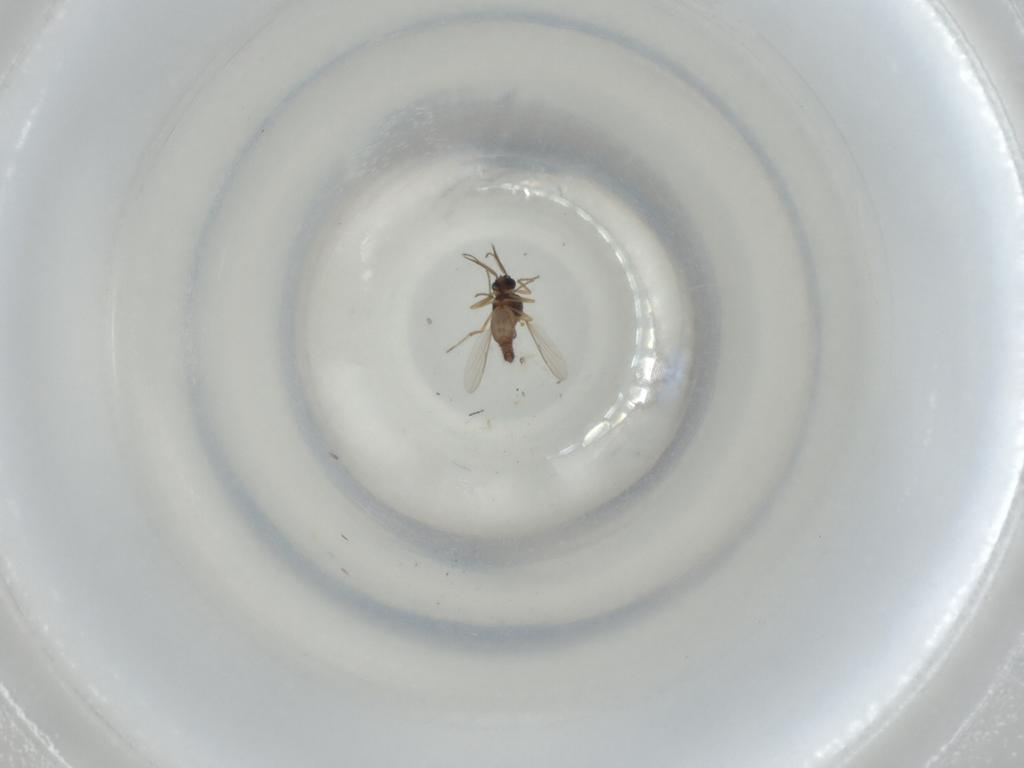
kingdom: Animalia
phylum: Arthropoda
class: Insecta
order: Diptera
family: Ceratopogonidae
